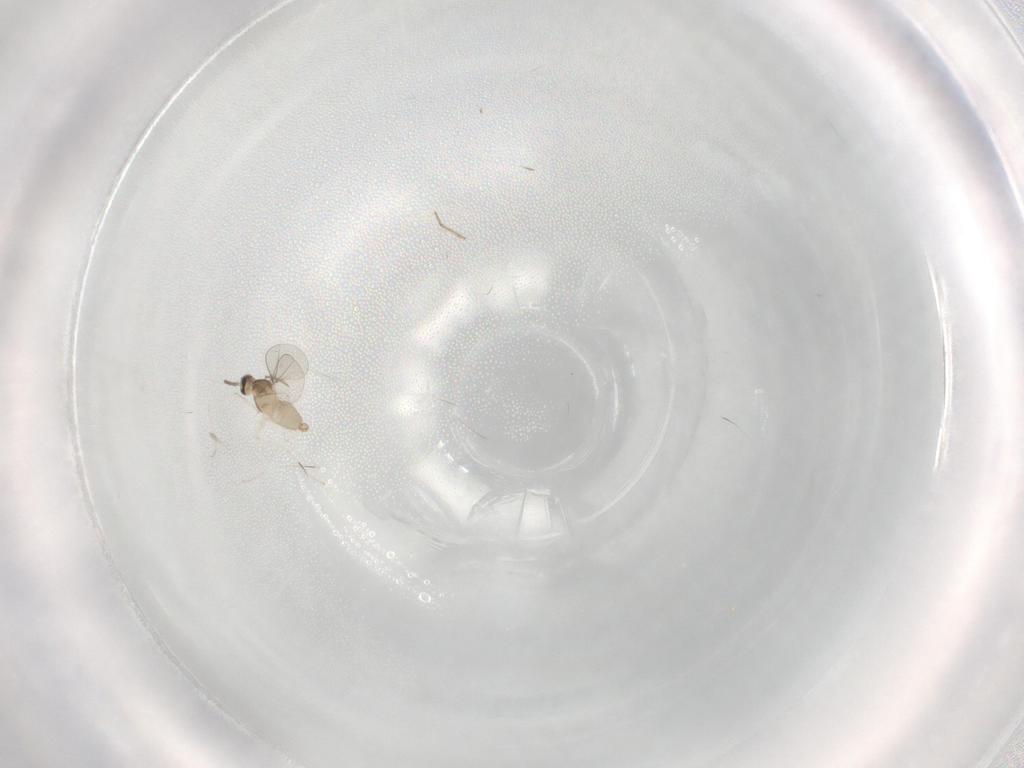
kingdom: Animalia
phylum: Arthropoda
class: Insecta
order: Diptera
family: Cecidomyiidae
